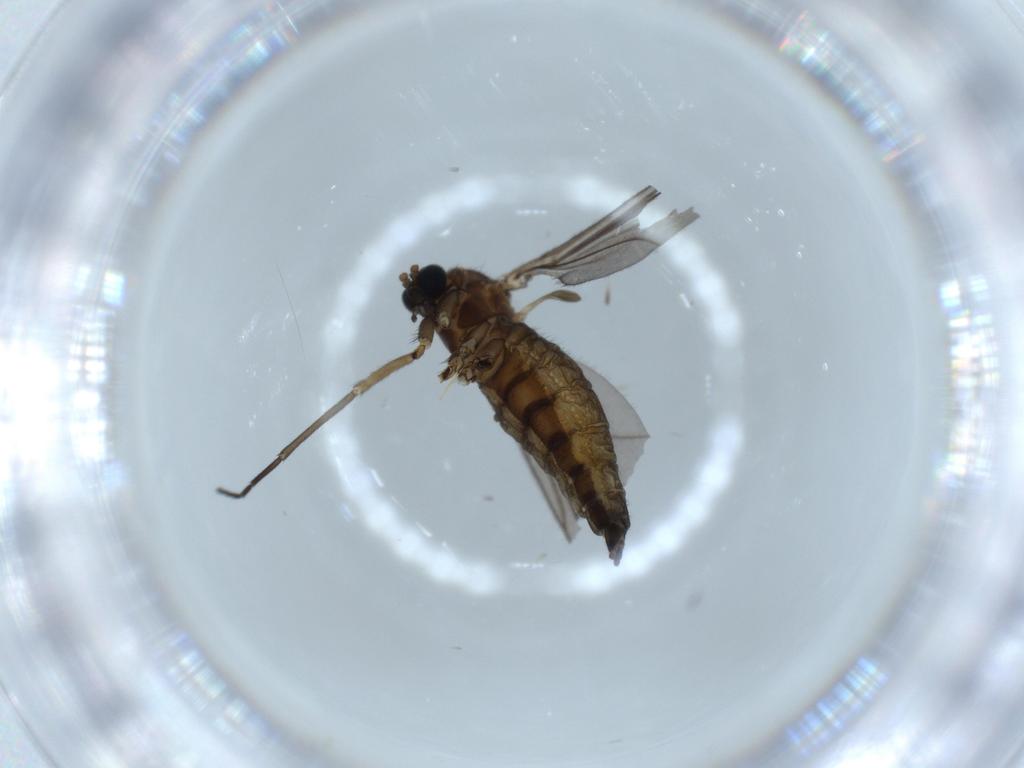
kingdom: Animalia
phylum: Arthropoda
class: Insecta
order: Diptera
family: Sciaridae
